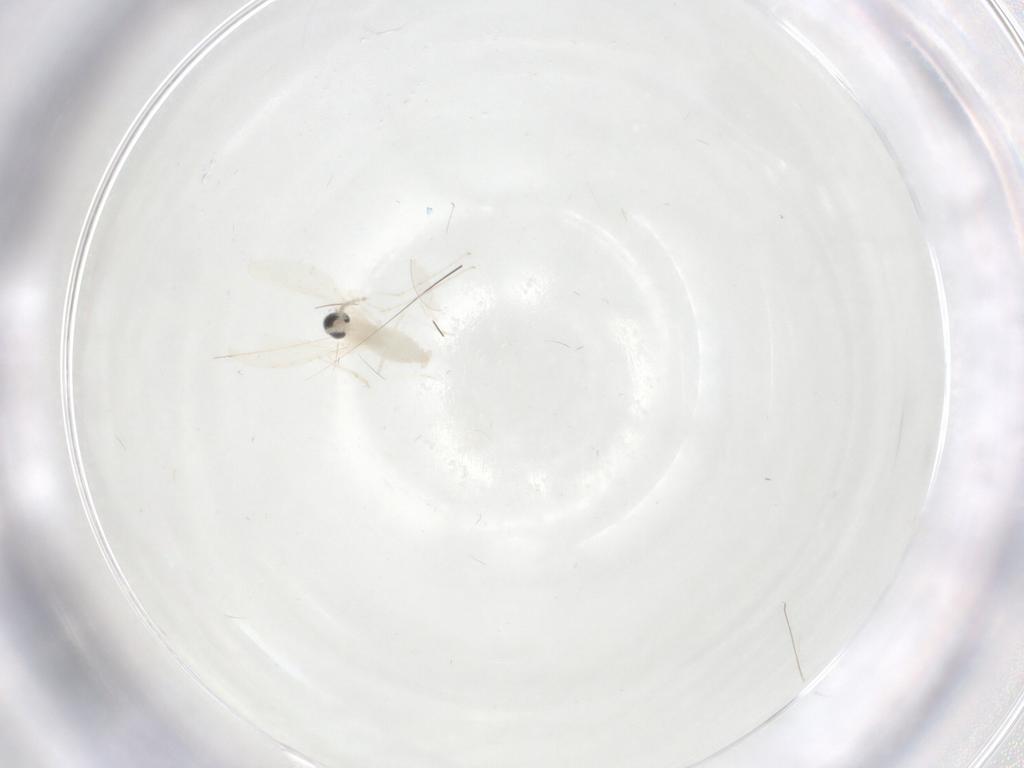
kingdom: Animalia
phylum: Arthropoda
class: Insecta
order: Diptera
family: Cecidomyiidae
